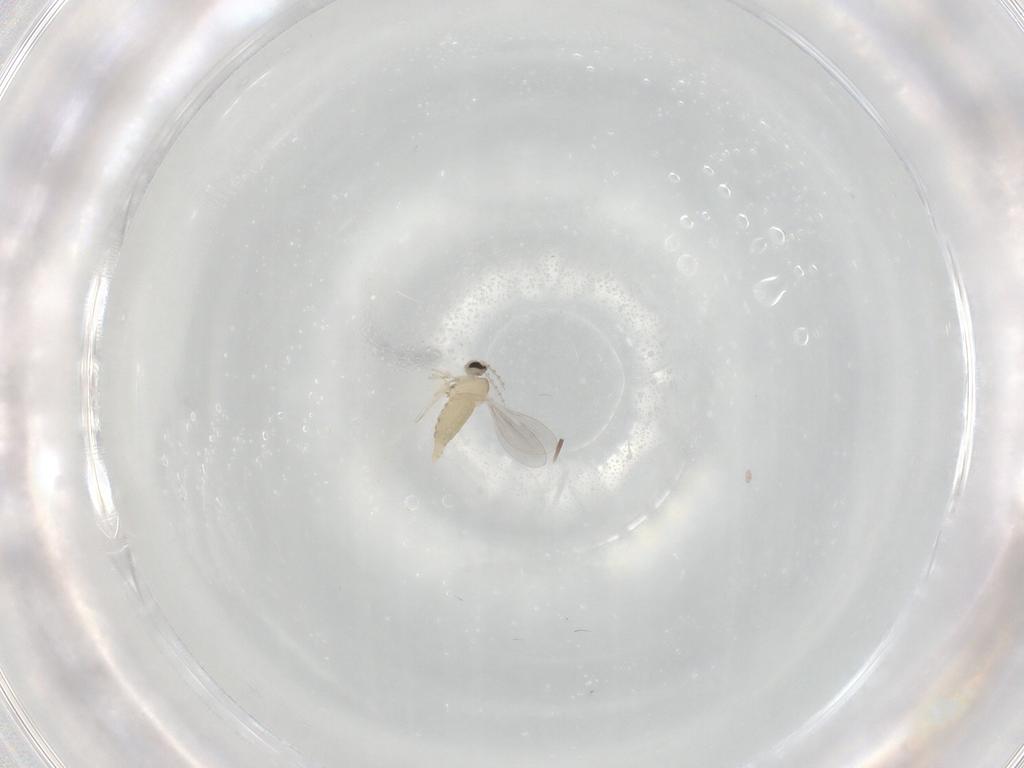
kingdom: Animalia
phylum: Arthropoda
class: Insecta
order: Diptera
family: Cecidomyiidae
